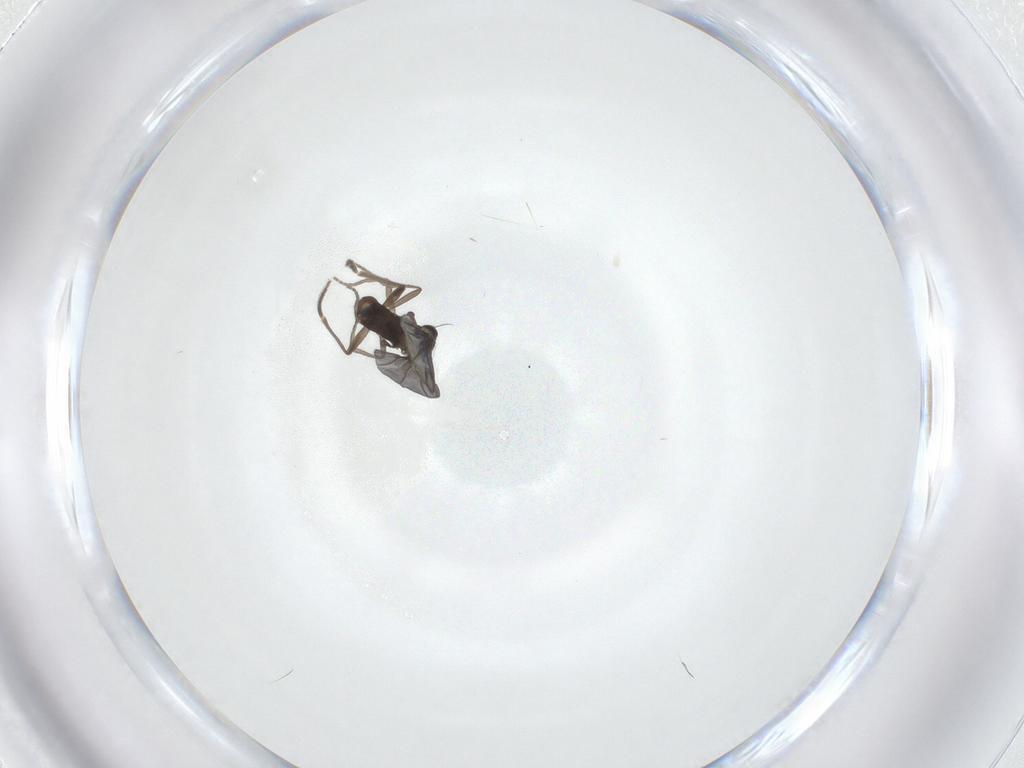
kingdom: Animalia
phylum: Arthropoda
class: Insecta
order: Diptera
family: Phoridae
